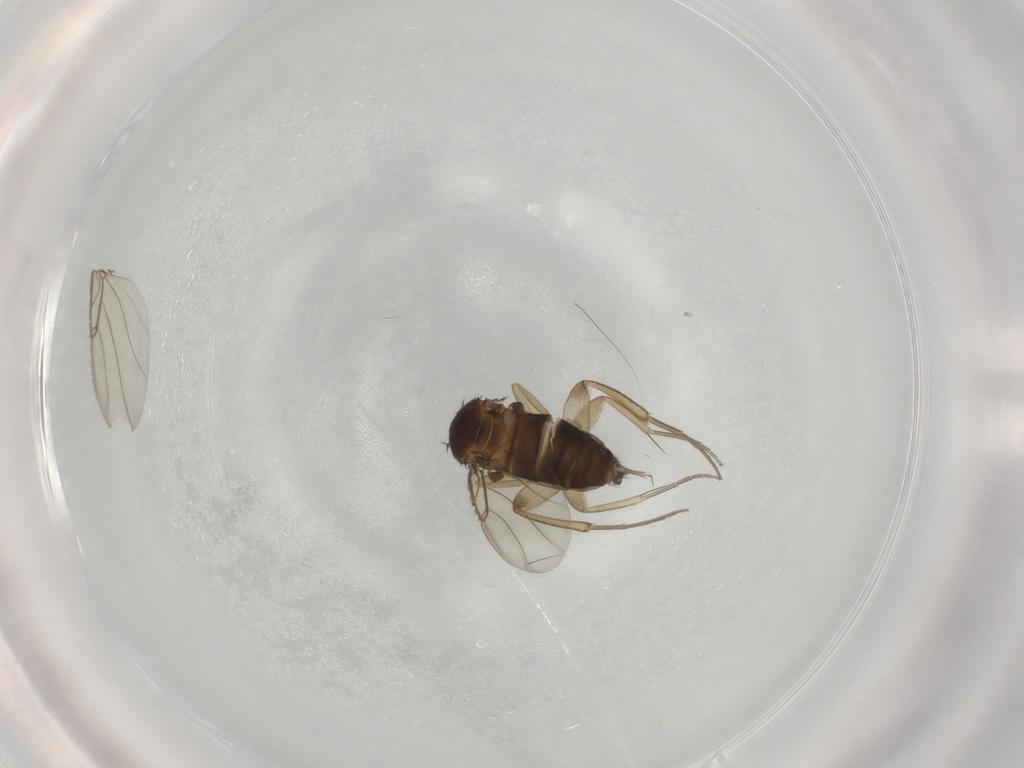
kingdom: Animalia
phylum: Arthropoda
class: Insecta
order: Diptera
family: Phoridae
